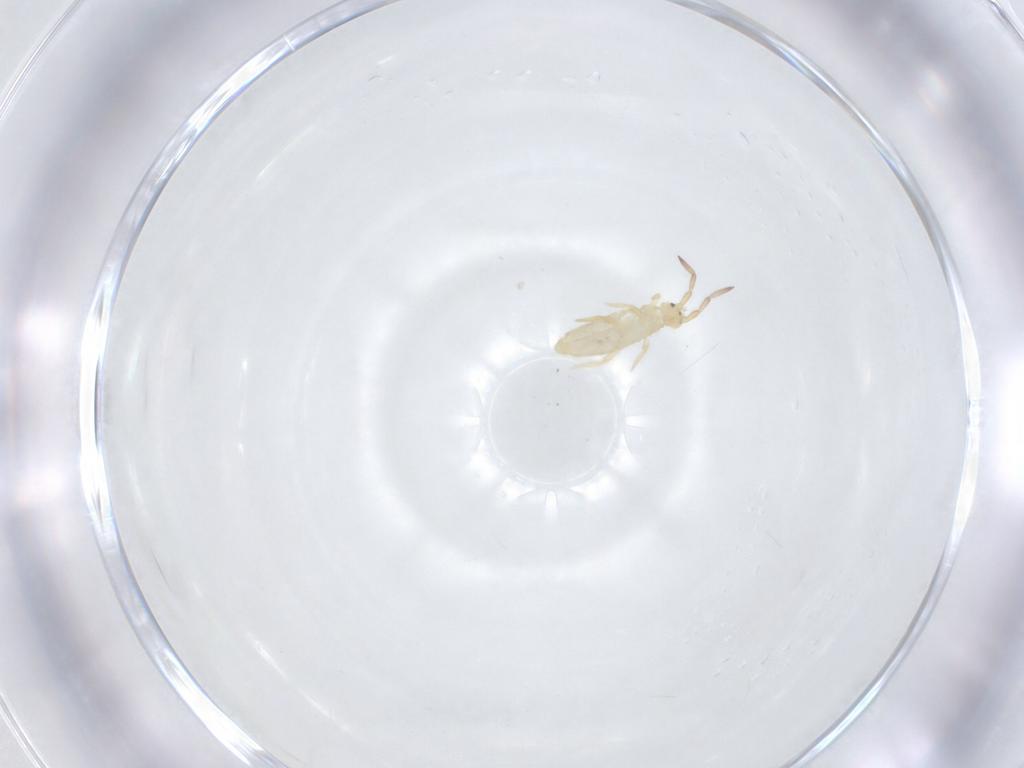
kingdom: Animalia
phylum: Arthropoda
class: Collembola
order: Entomobryomorpha
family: Entomobryidae
